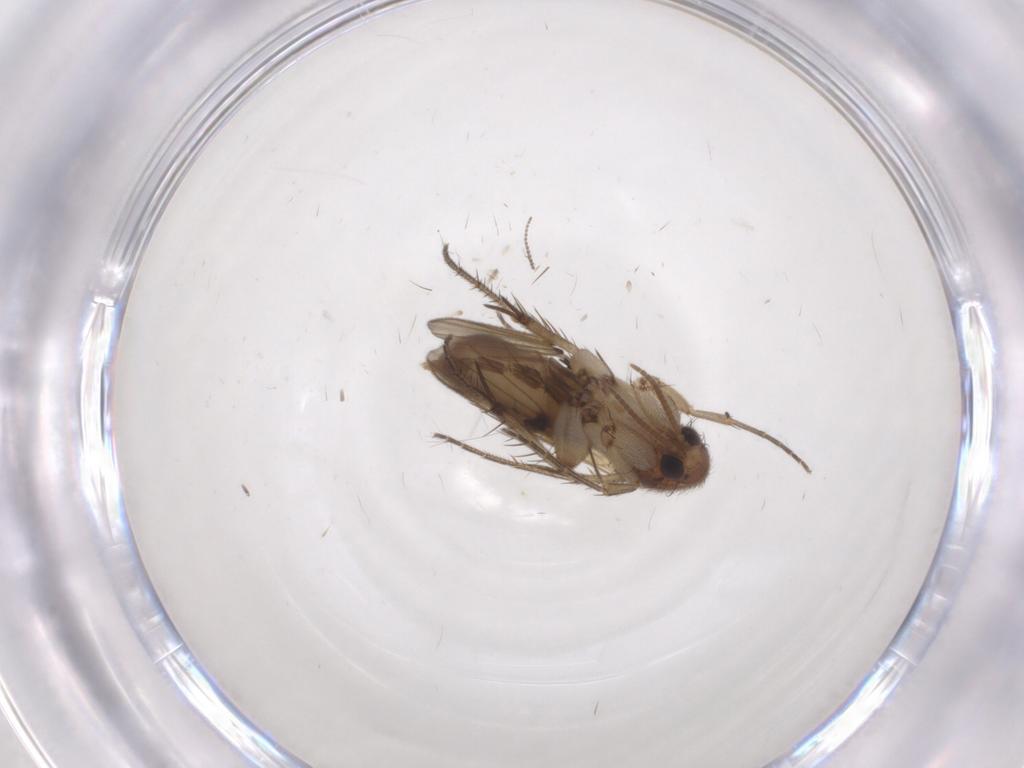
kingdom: Animalia
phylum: Arthropoda
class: Insecta
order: Diptera
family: Mycetophilidae
